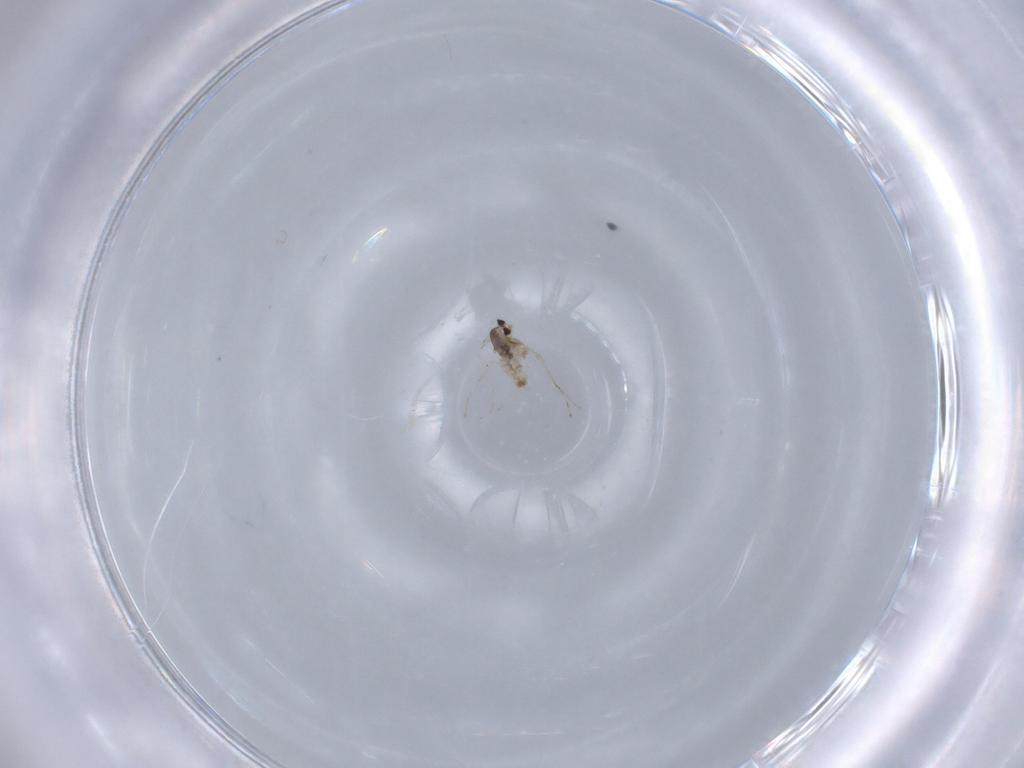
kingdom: Animalia
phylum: Arthropoda
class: Insecta
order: Diptera
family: Cecidomyiidae
